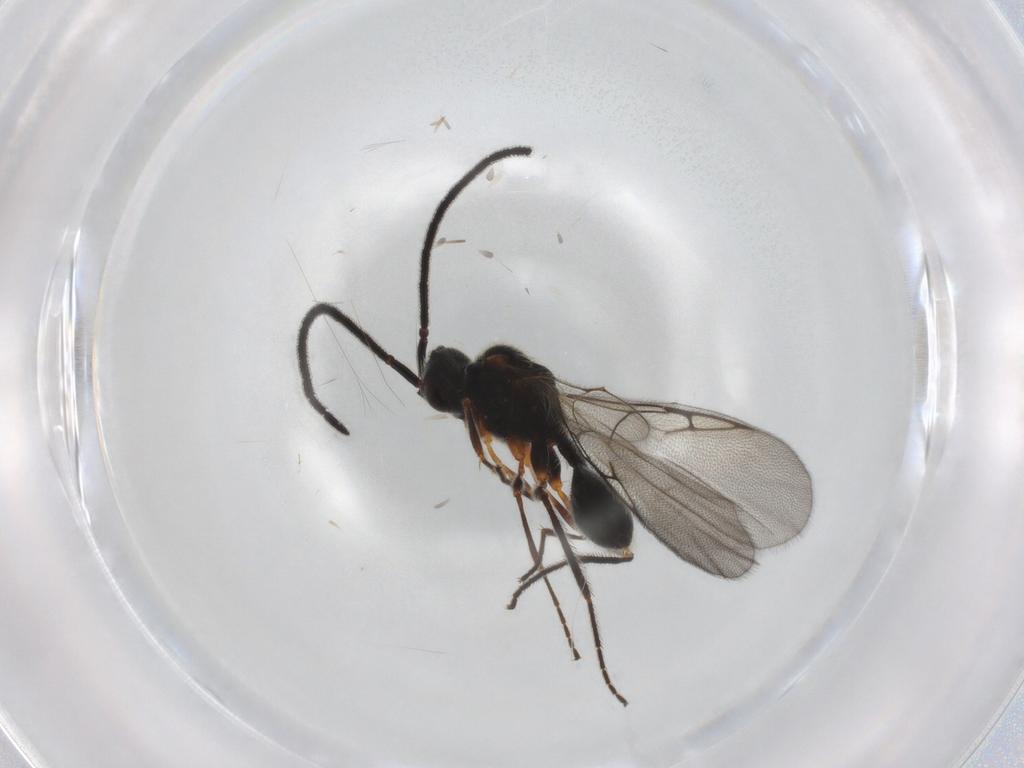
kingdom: Animalia
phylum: Arthropoda
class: Insecta
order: Hymenoptera
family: Diapriidae
